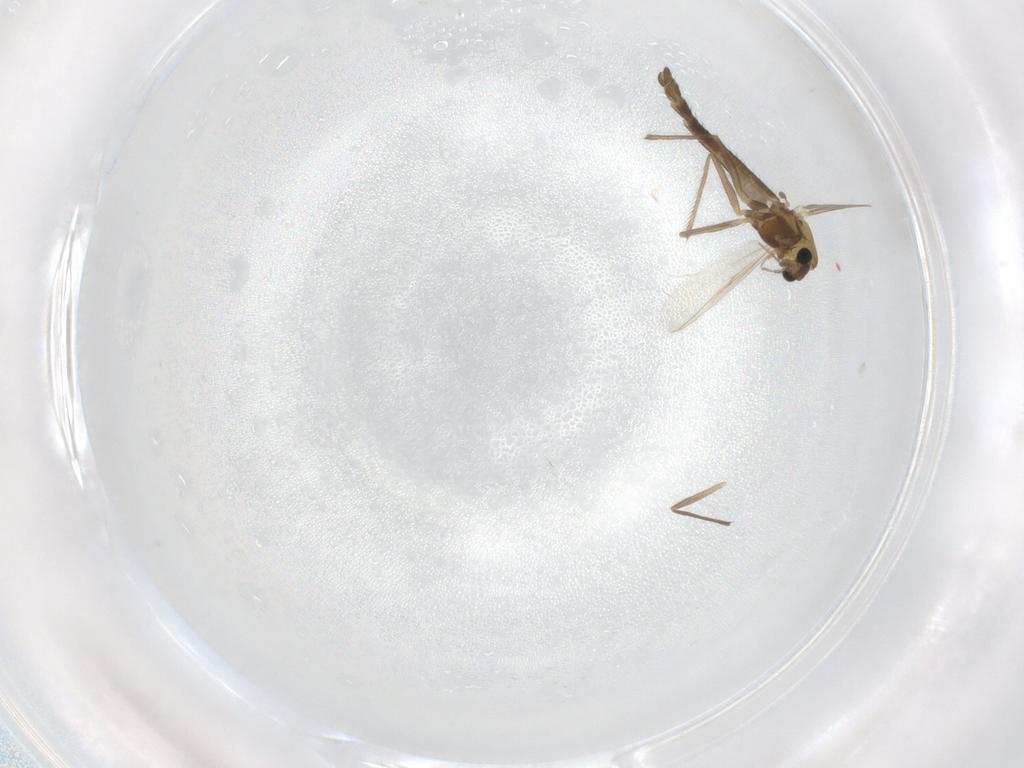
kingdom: Animalia
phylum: Arthropoda
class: Insecta
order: Diptera
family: Chironomidae
